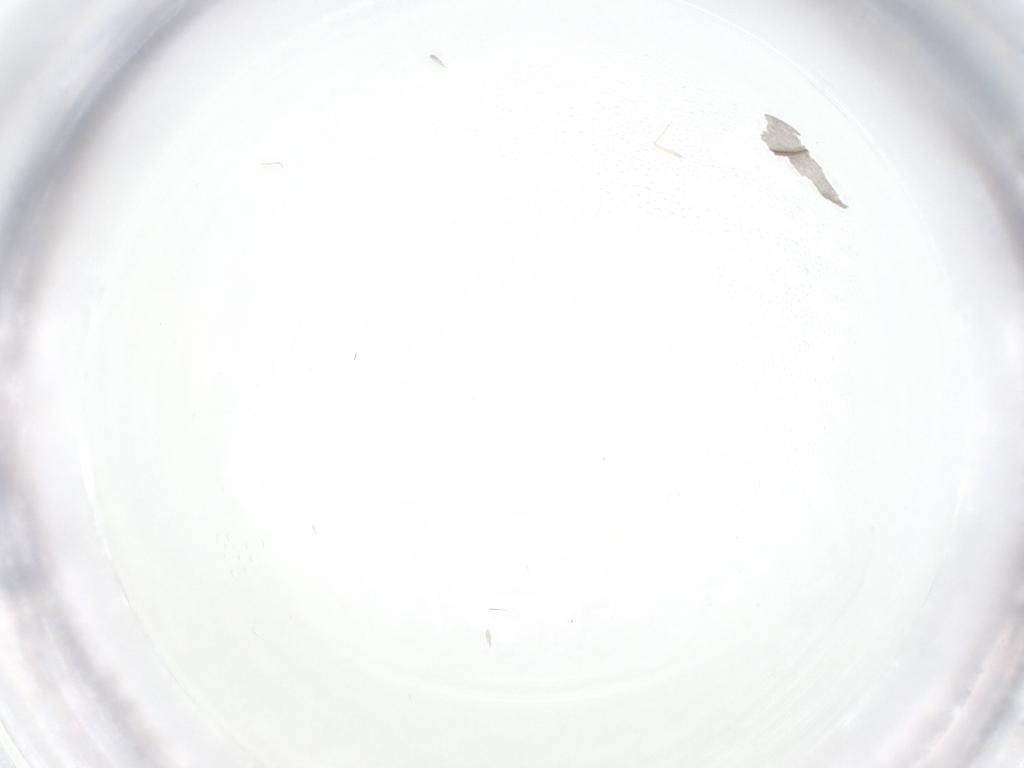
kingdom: Animalia
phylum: Arthropoda
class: Insecta
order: Diptera
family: Chironomidae
